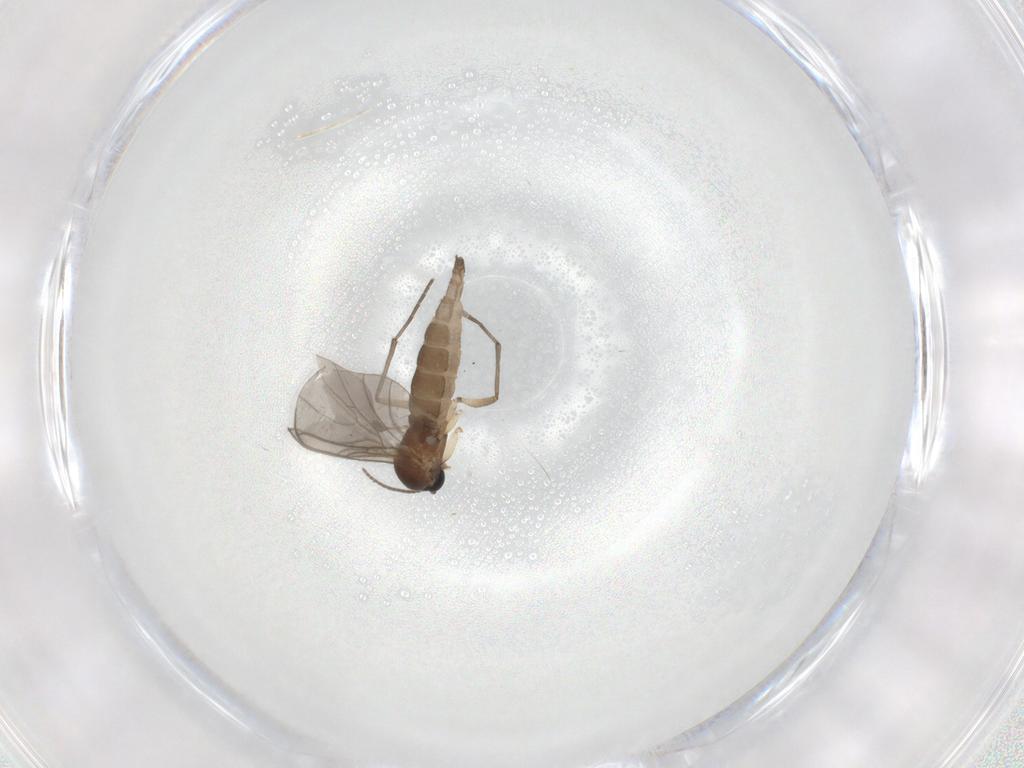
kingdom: Animalia
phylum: Arthropoda
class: Insecta
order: Diptera
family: Sciaridae
